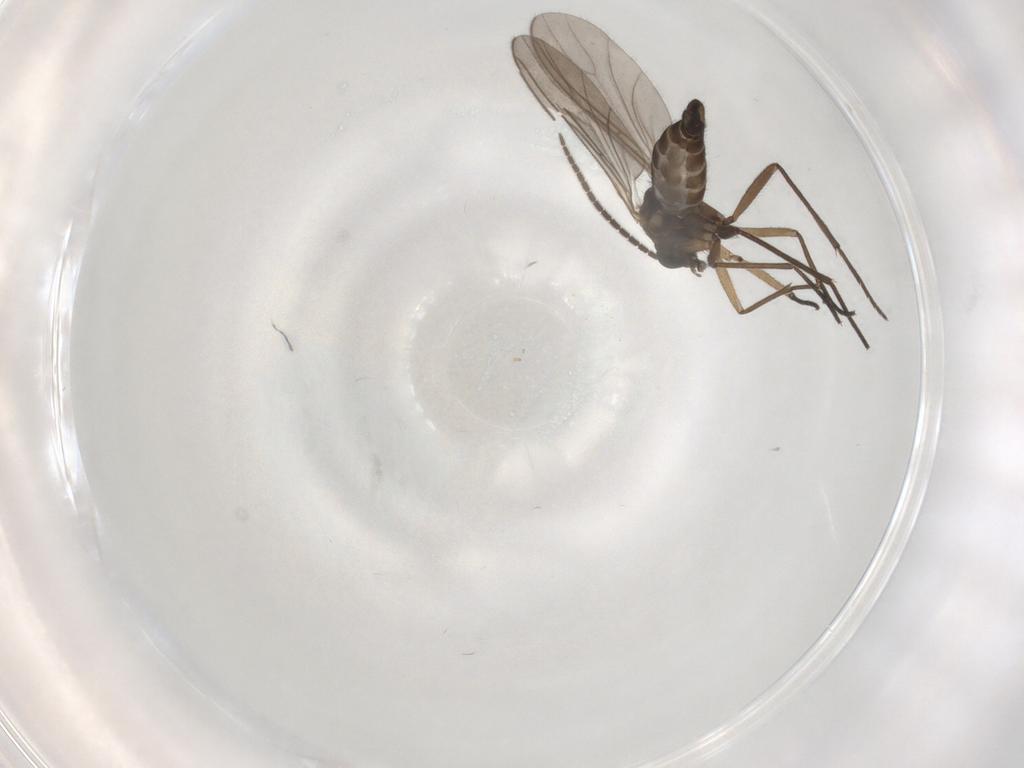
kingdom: Animalia
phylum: Arthropoda
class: Insecta
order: Diptera
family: Sciaridae
